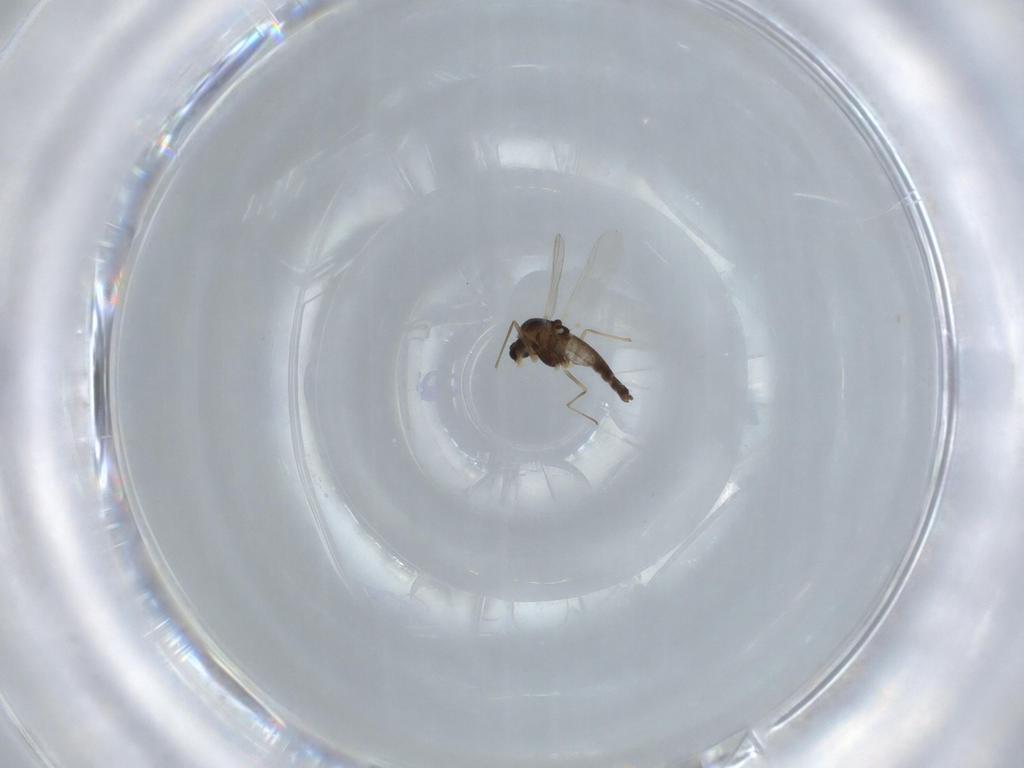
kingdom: Animalia
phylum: Arthropoda
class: Insecta
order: Diptera
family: Chironomidae
